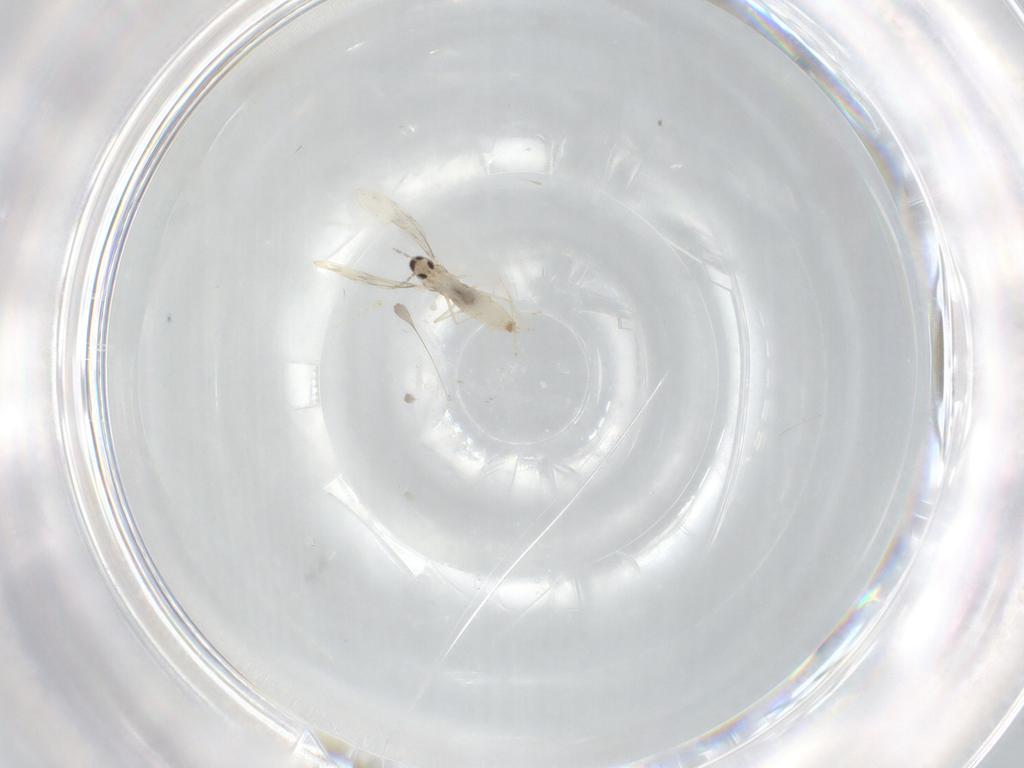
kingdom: Animalia
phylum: Arthropoda
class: Insecta
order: Diptera
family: Cecidomyiidae
